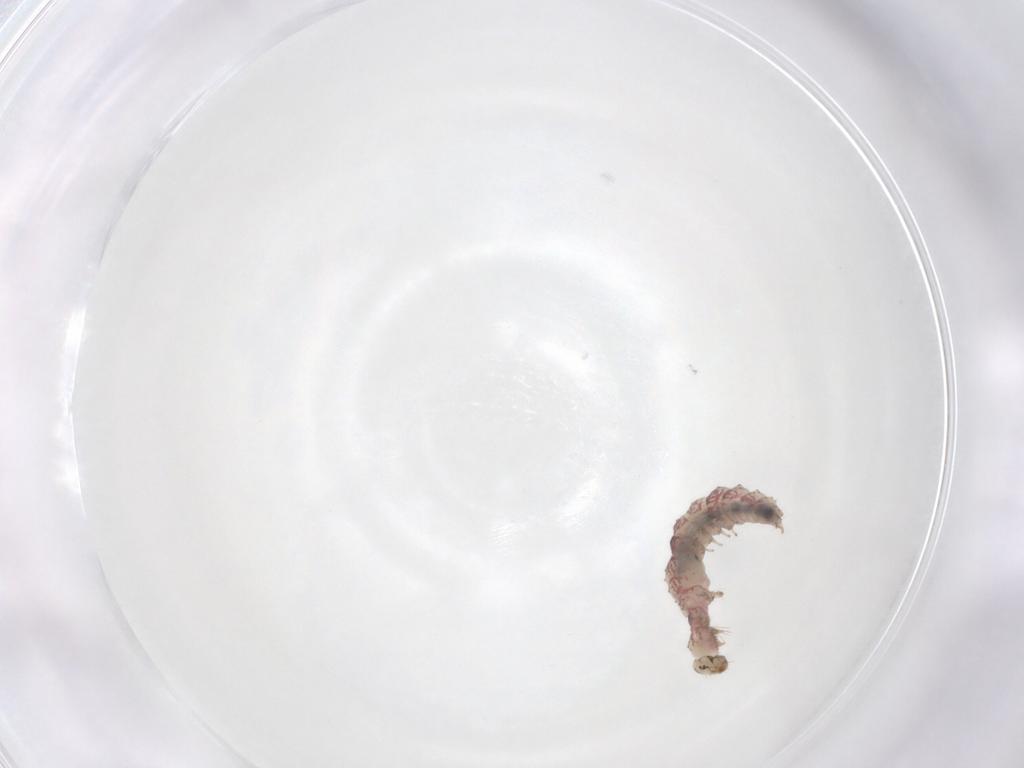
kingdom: Animalia
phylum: Arthropoda
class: Insecta
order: Lepidoptera
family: Geometridae
